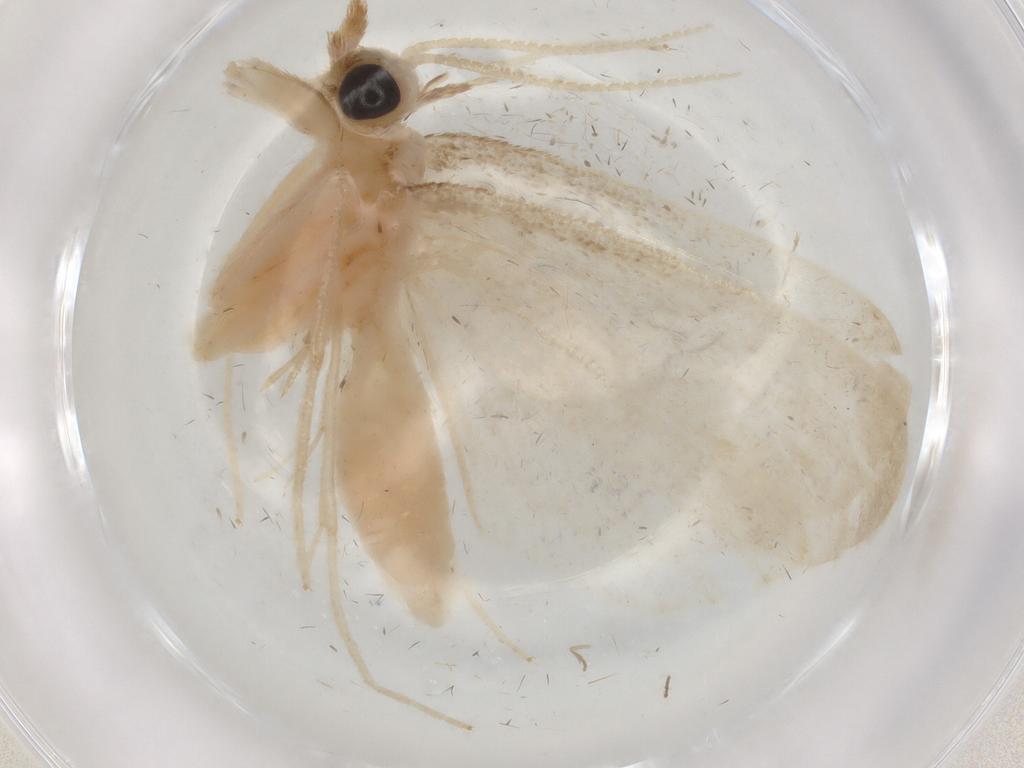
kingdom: Animalia
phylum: Arthropoda
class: Insecta
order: Lepidoptera
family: Crambidae
